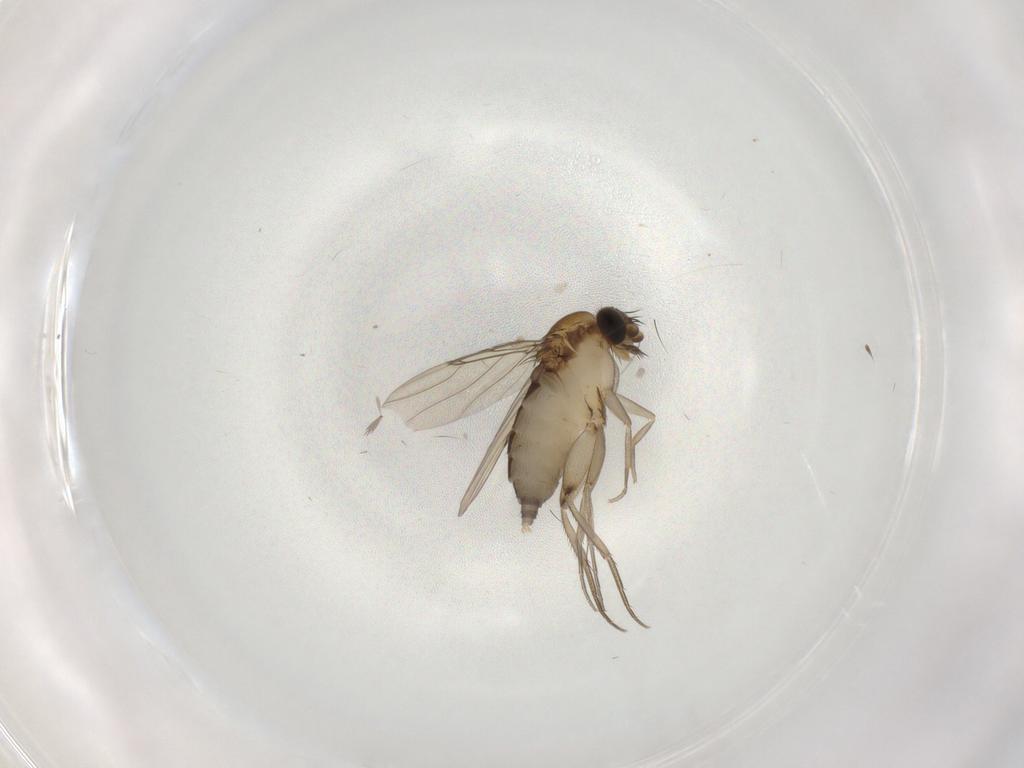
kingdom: Animalia
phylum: Arthropoda
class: Insecta
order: Diptera
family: Phoridae
